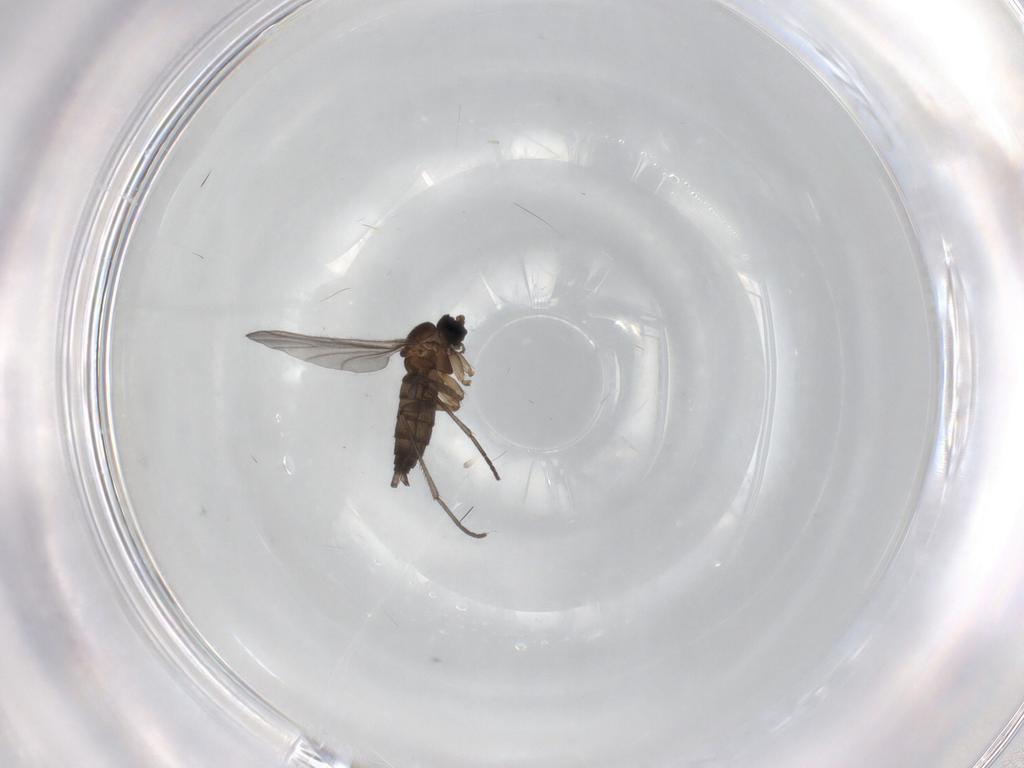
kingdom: Animalia
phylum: Arthropoda
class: Insecta
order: Diptera
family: Sciaridae
